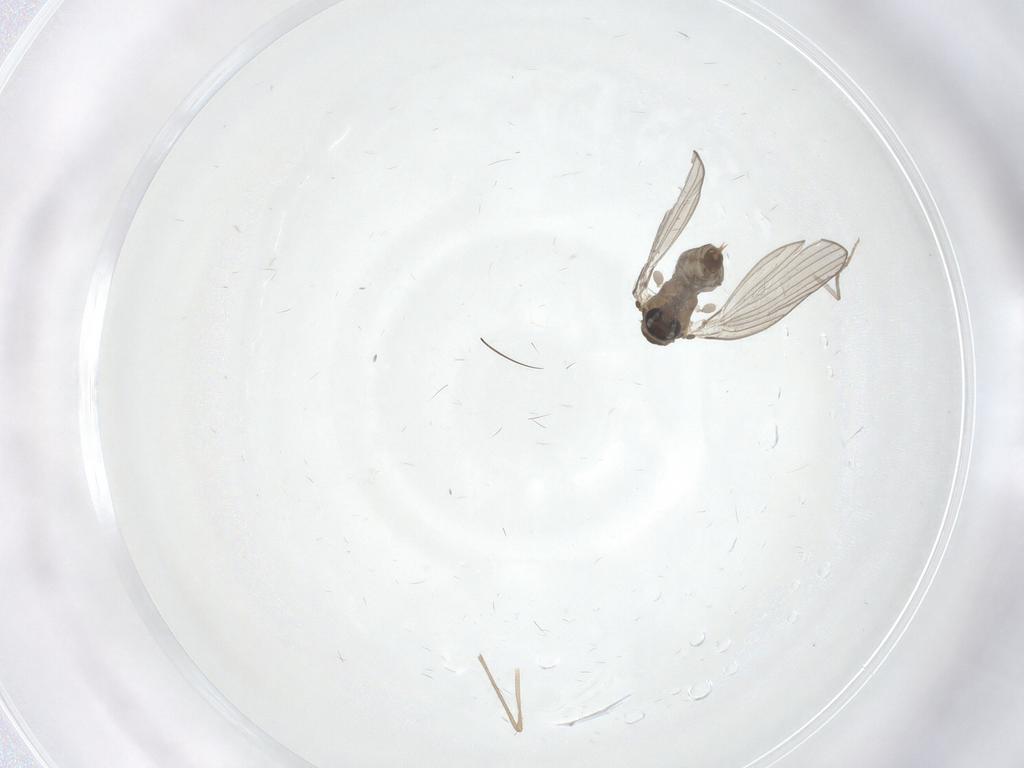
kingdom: Animalia
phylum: Arthropoda
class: Insecta
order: Diptera
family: Chironomidae
